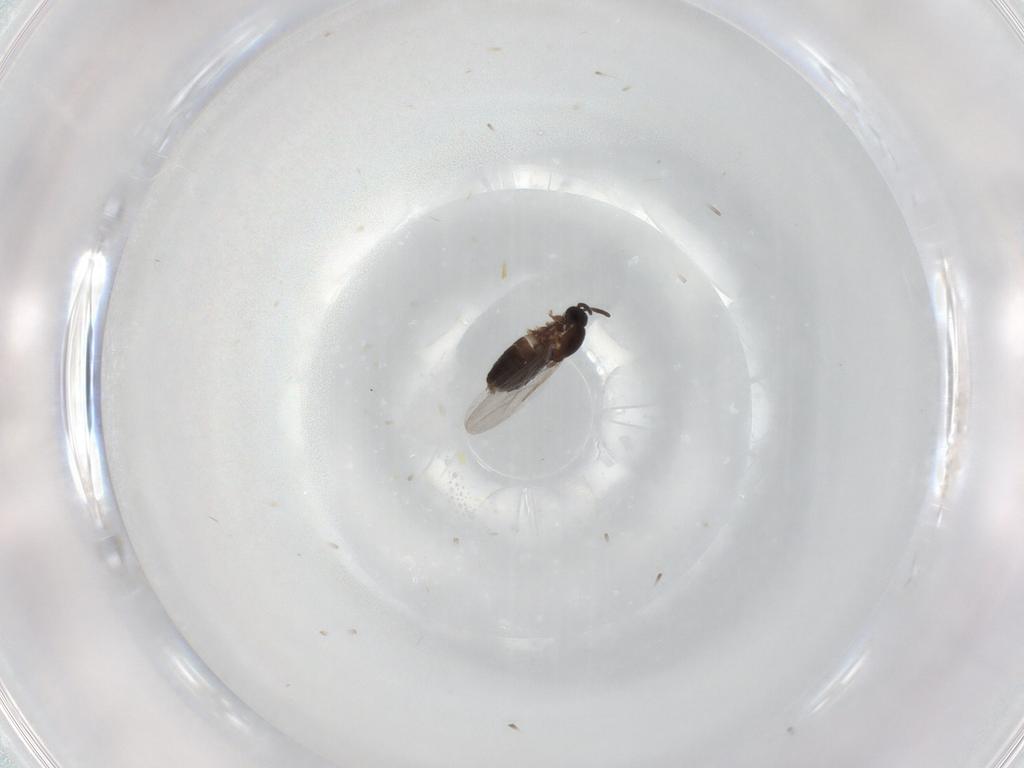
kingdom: Animalia
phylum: Arthropoda
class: Insecta
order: Diptera
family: Scatopsidae
